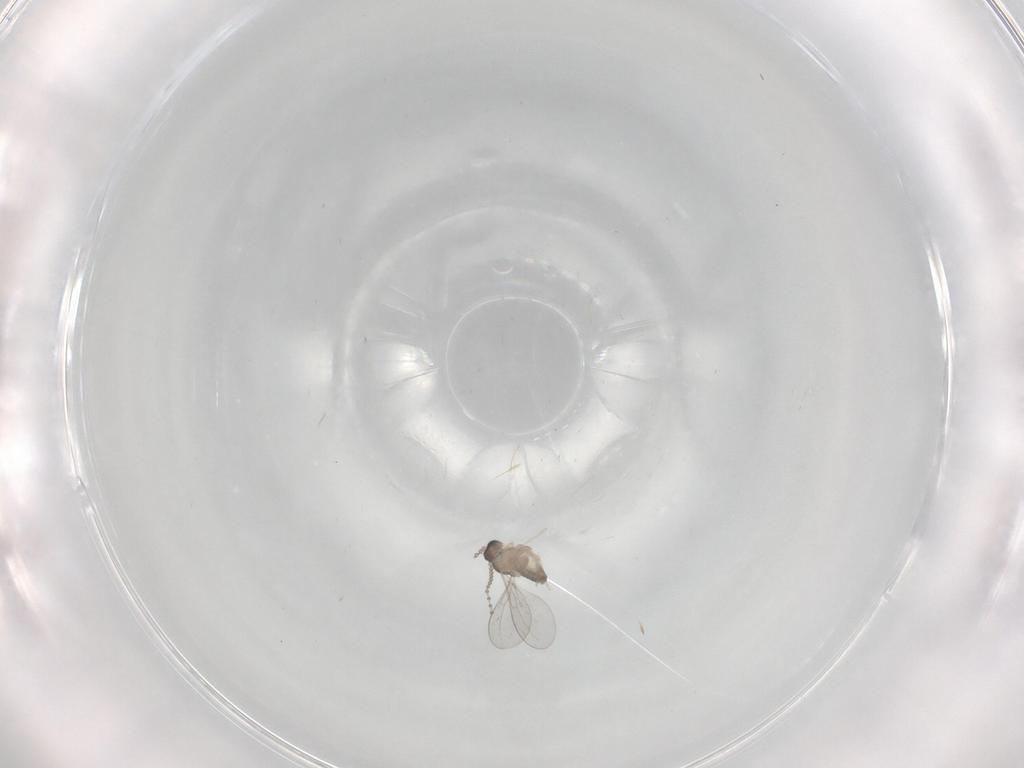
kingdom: Animalia
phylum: Arthropoda
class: Insecta
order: Diptera
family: Cecidomyiidae
